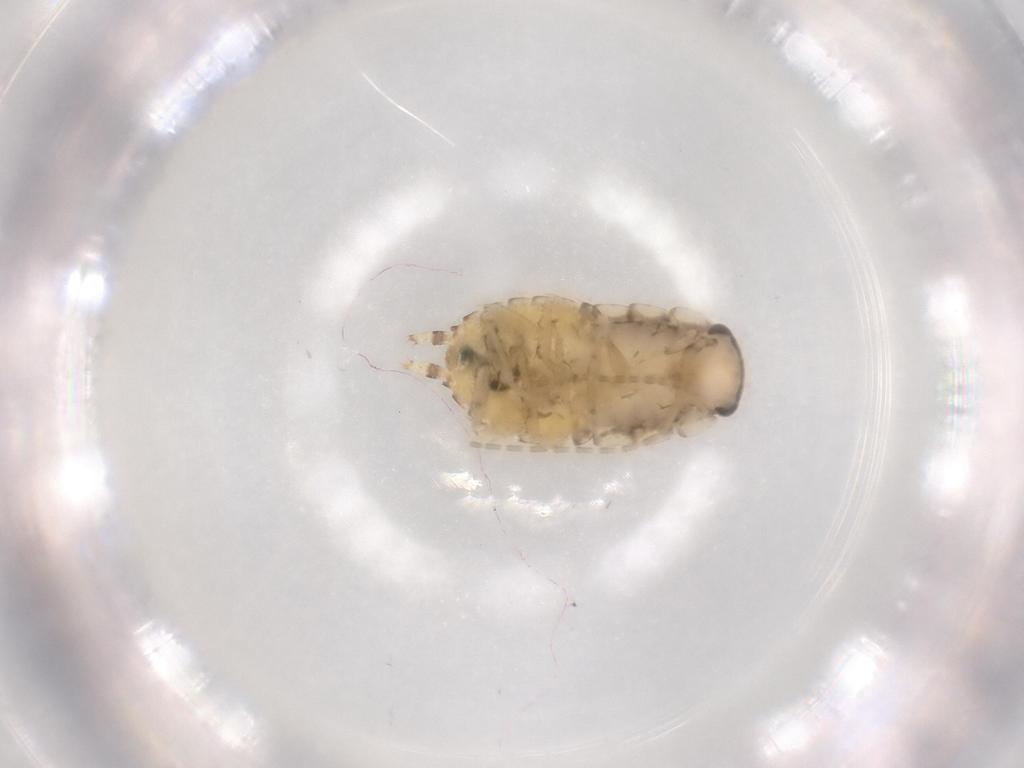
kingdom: Animalia
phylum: Arthropoda
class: Insecta
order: Blattodea
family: Ectobiidae
